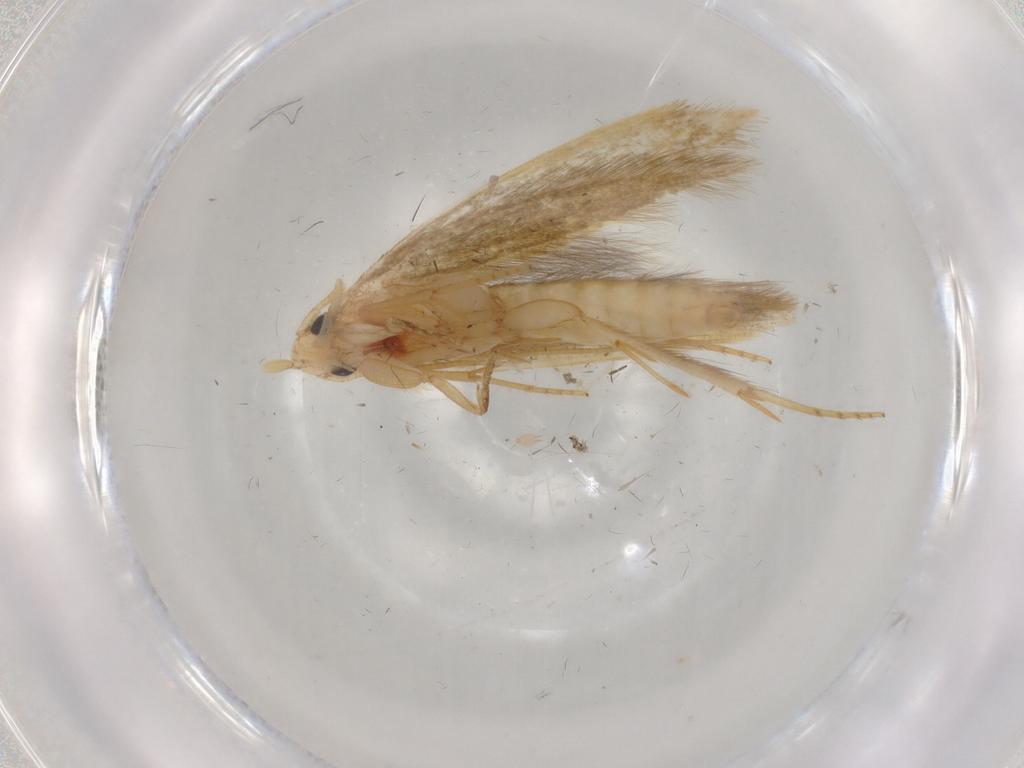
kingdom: Animalia
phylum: Arthropoda
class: Insecta
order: Lepidoptera
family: Tineidae
